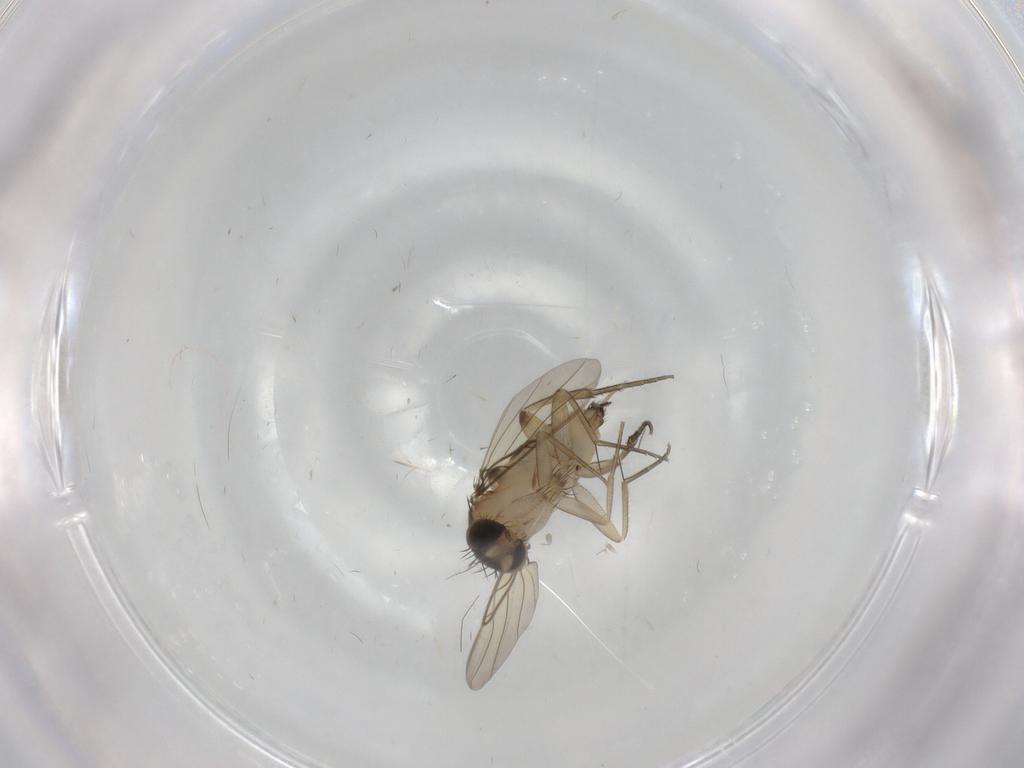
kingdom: Animalia
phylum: Arthropoda
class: Insecta
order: Diptera
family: Phoridae
